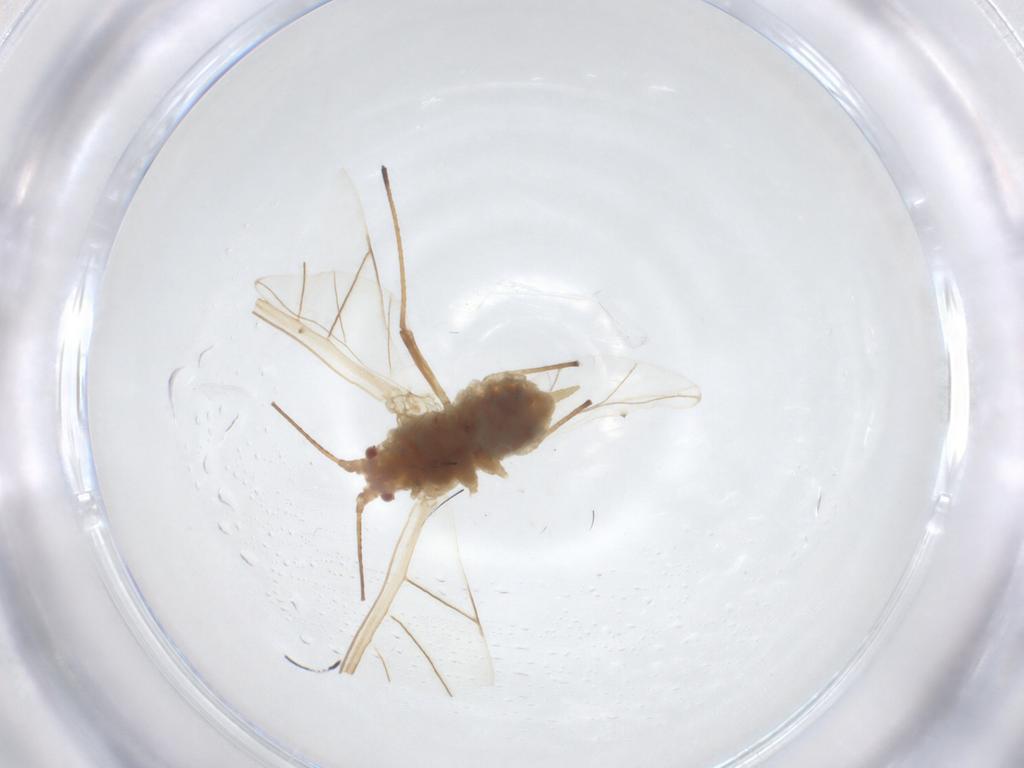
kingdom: Animalia
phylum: Arthropoda
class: Insecta
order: Hemiptera
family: Aphididae
